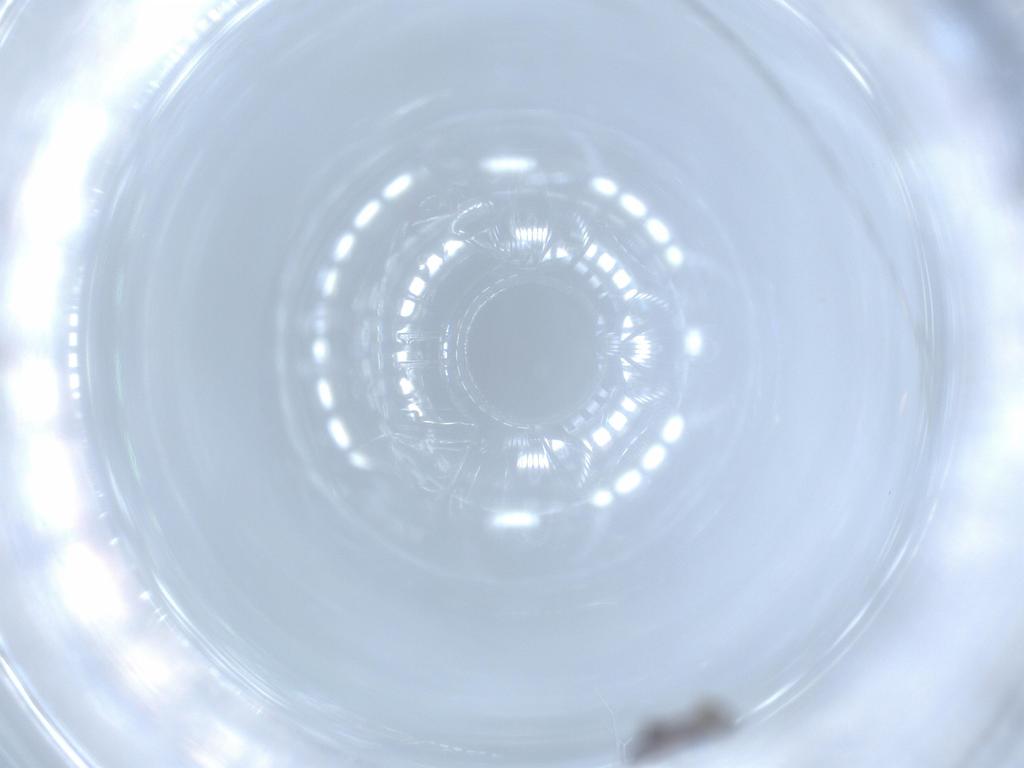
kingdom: Animalia
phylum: Arthropoda
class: Insecta
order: Diptera
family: Chironomidae
